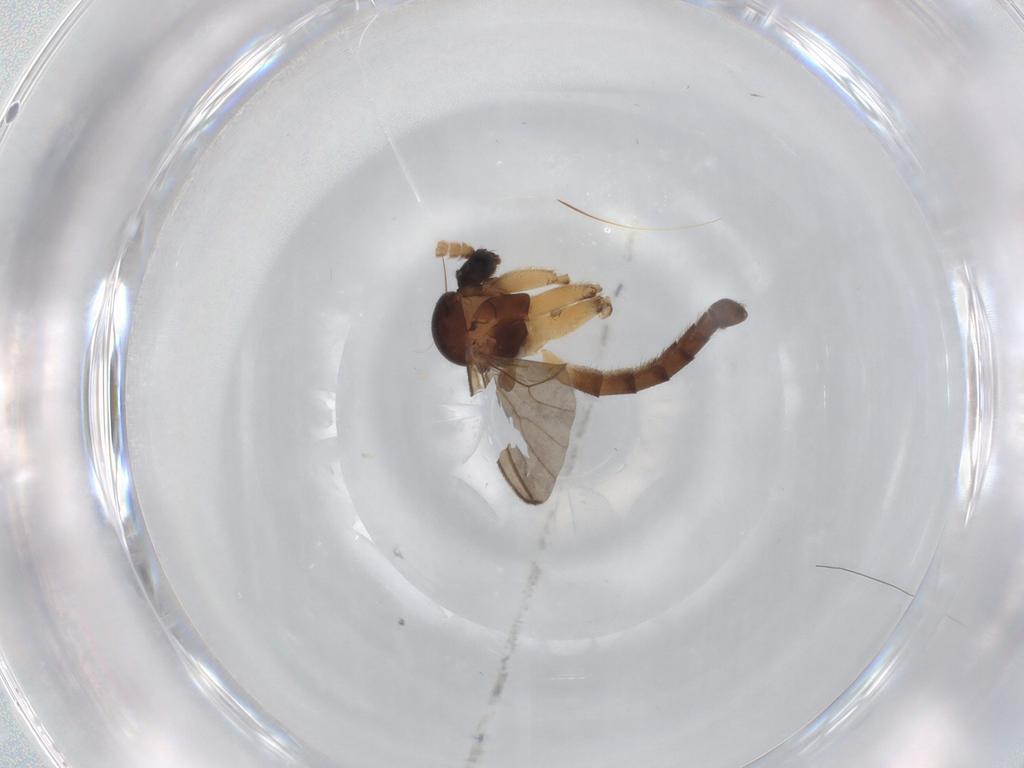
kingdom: Animalia
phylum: Arthropoda
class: Insecta
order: Diptera
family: Mycetophilidae
